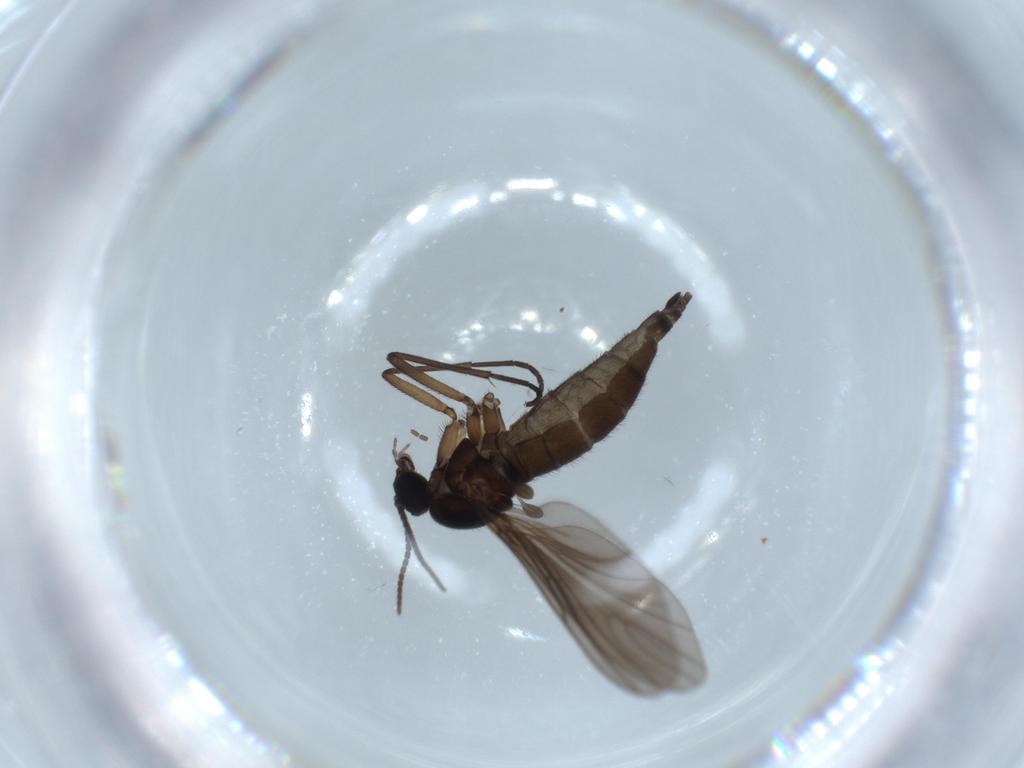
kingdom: Animalia
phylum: Arthropoda
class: Insecta
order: Diptera
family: Sciaridae
